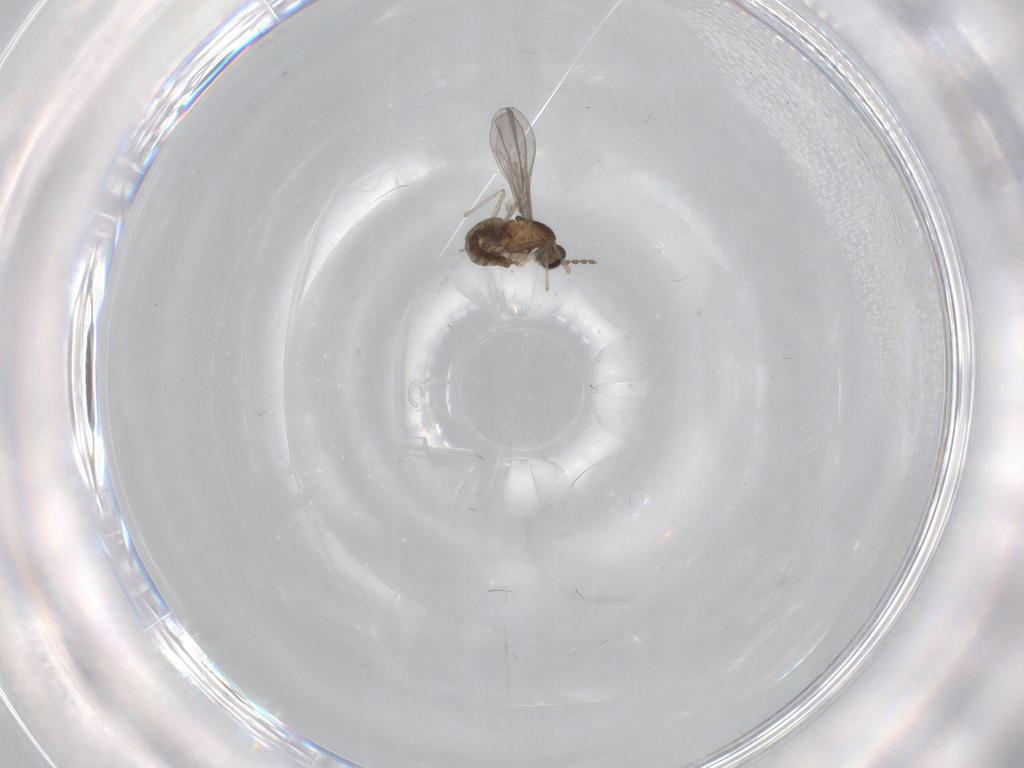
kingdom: Animalia
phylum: Arthropoda
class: Insecta
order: Diptera
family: Cecidomyiidae
